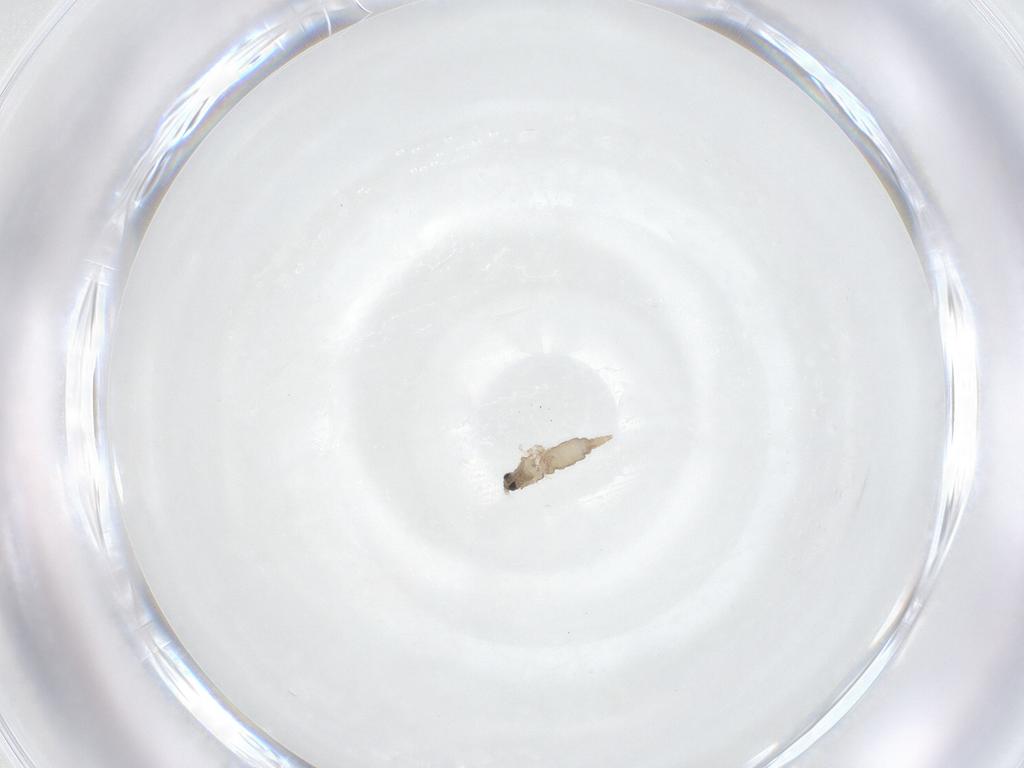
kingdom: Animalia
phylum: Arthropoda
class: Insecta
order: Diptera
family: Cecidomyiidae
